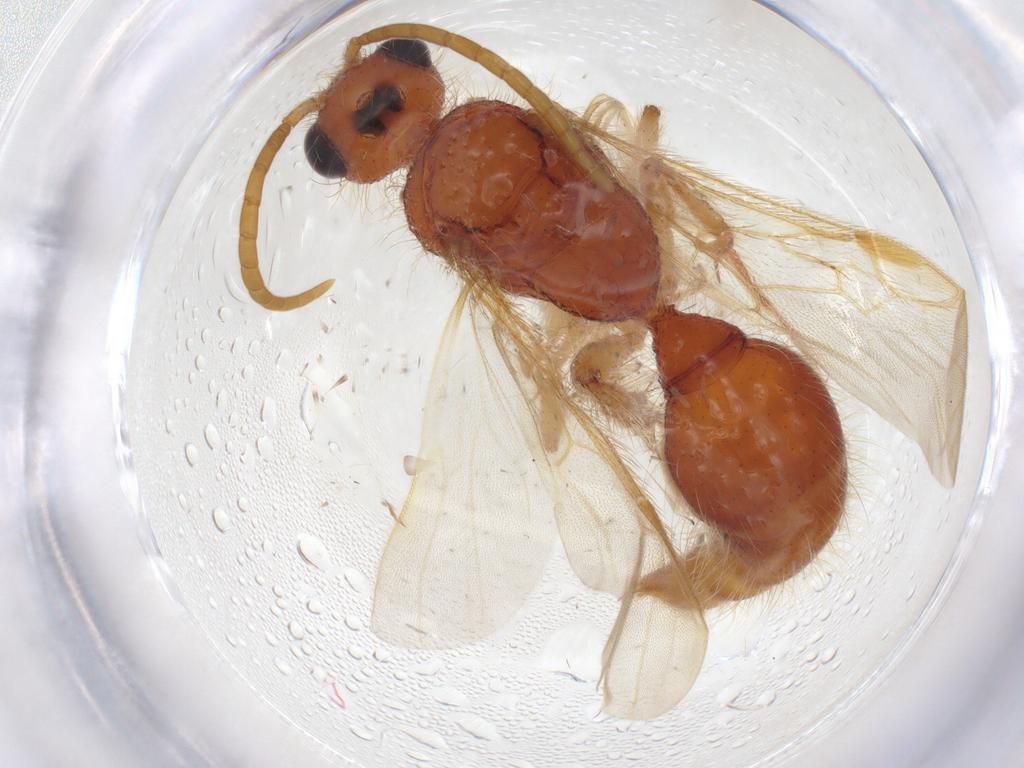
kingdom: Animalia
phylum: Arthropoda
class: Insecta
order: Hymenoptera
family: Mutillidae
